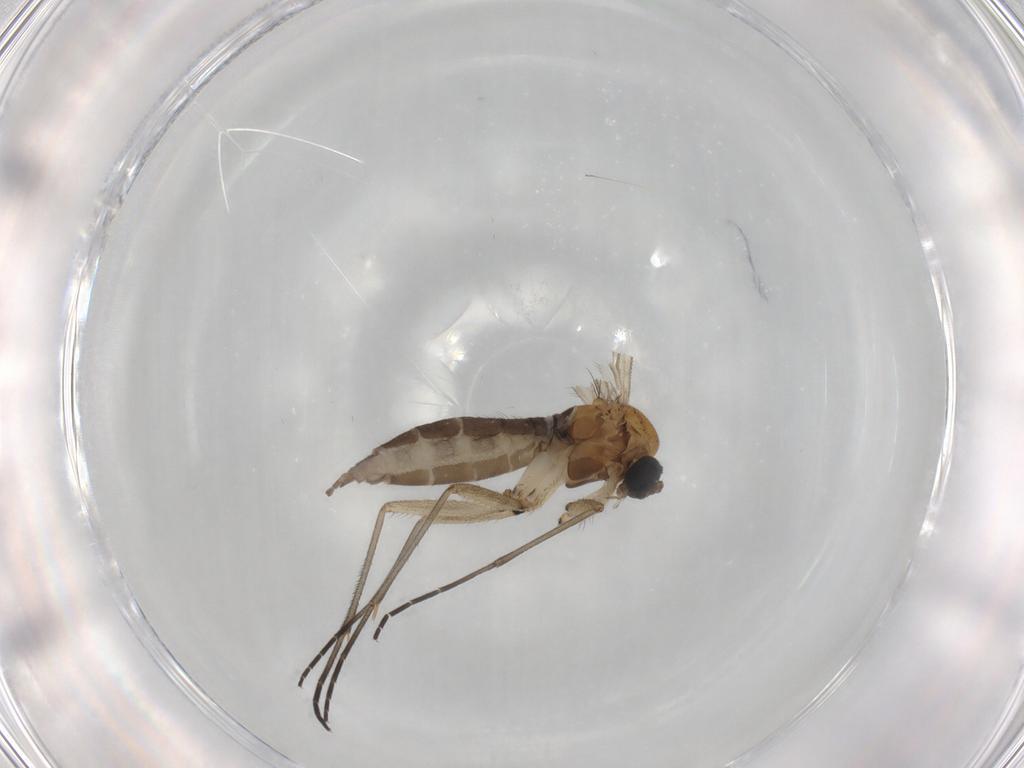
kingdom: Animalia
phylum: Arthropoda
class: Insecta
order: Diptera
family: Sciaridae
